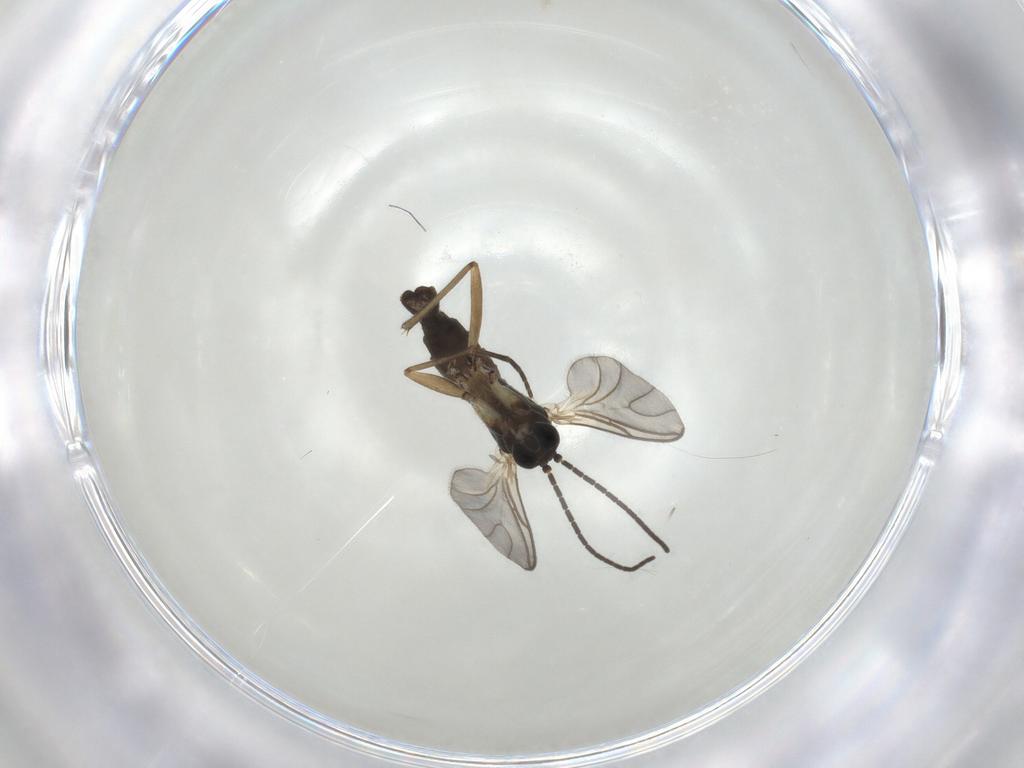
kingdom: Animalia
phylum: Arthropoda
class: Insecta
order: Diptera
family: Sciaridae
